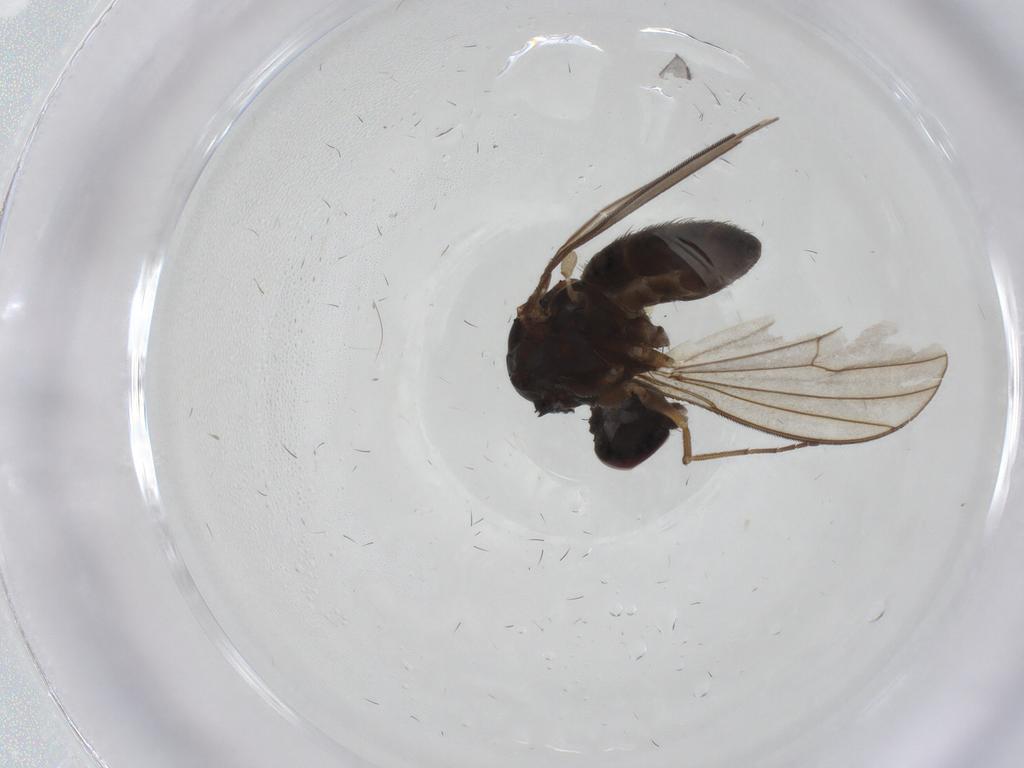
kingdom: Animalia
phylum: Arthropoda
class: Insecta
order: Diptera
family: Dolichopodidae
